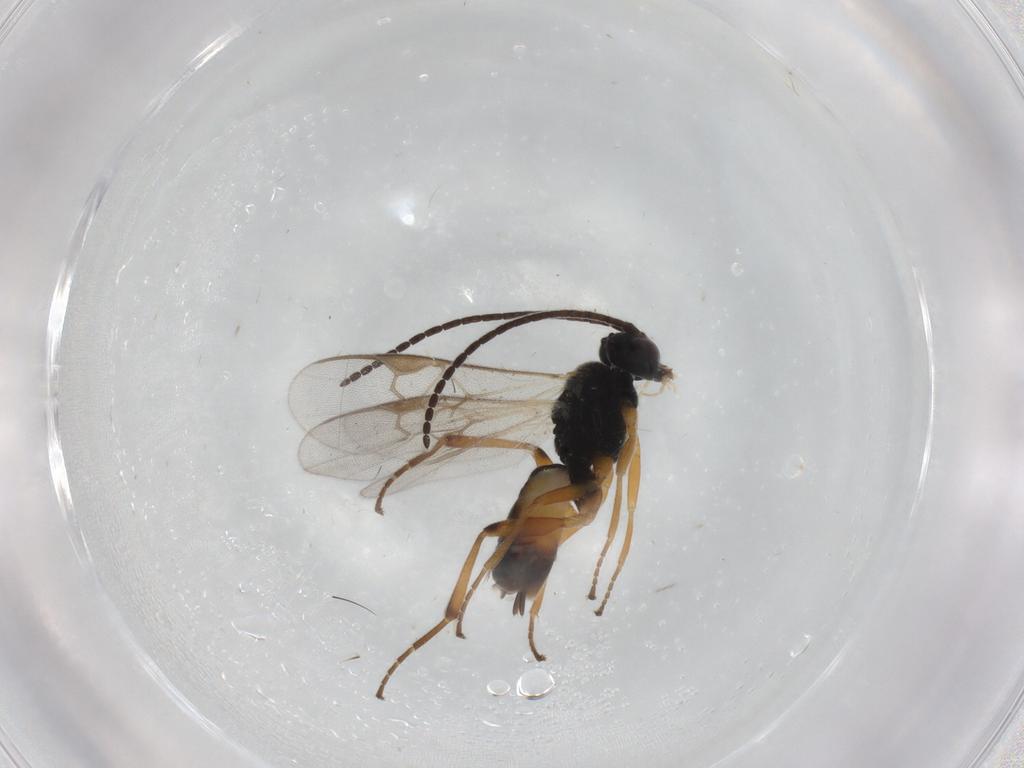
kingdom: Animalia
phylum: Arthropoda
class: Insecta
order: Hymenoptera
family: Braconidae
